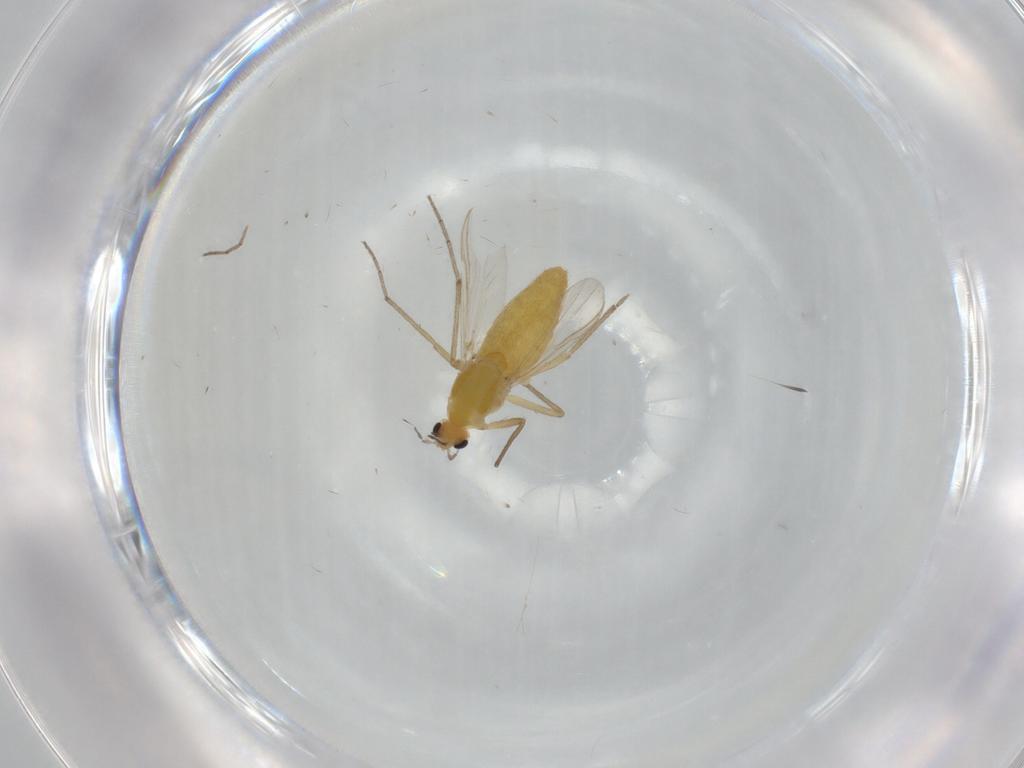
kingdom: Animalia
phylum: Arthropoda
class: Insecta
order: Diptera
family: Chironomidae
